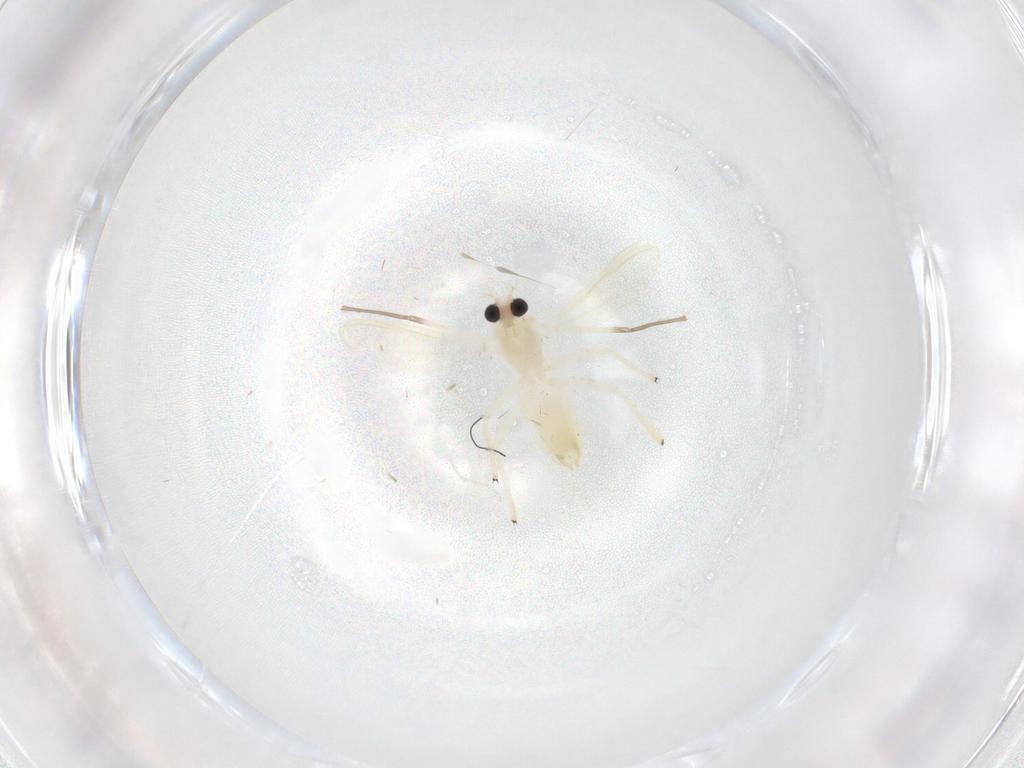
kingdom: Animalia
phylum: Arthropoda
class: Insecta
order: Diptera
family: Chironomidae
